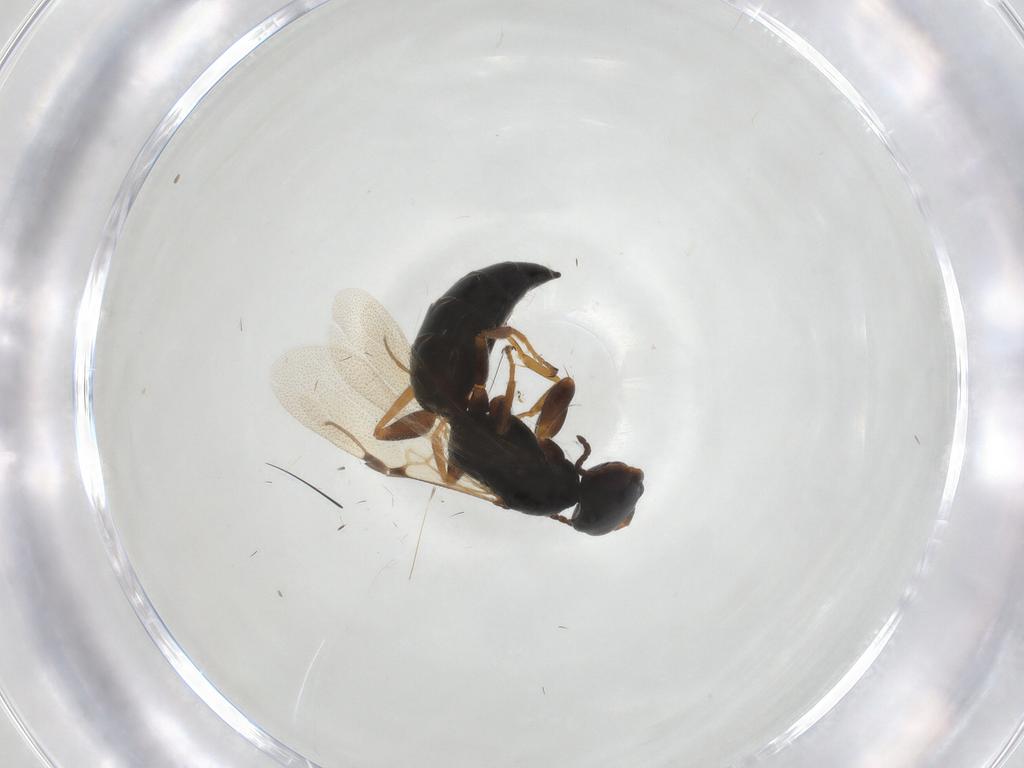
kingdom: Animalia
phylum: Arthropoda
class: Insecta
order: Hymenoptera
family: Bethylidae
